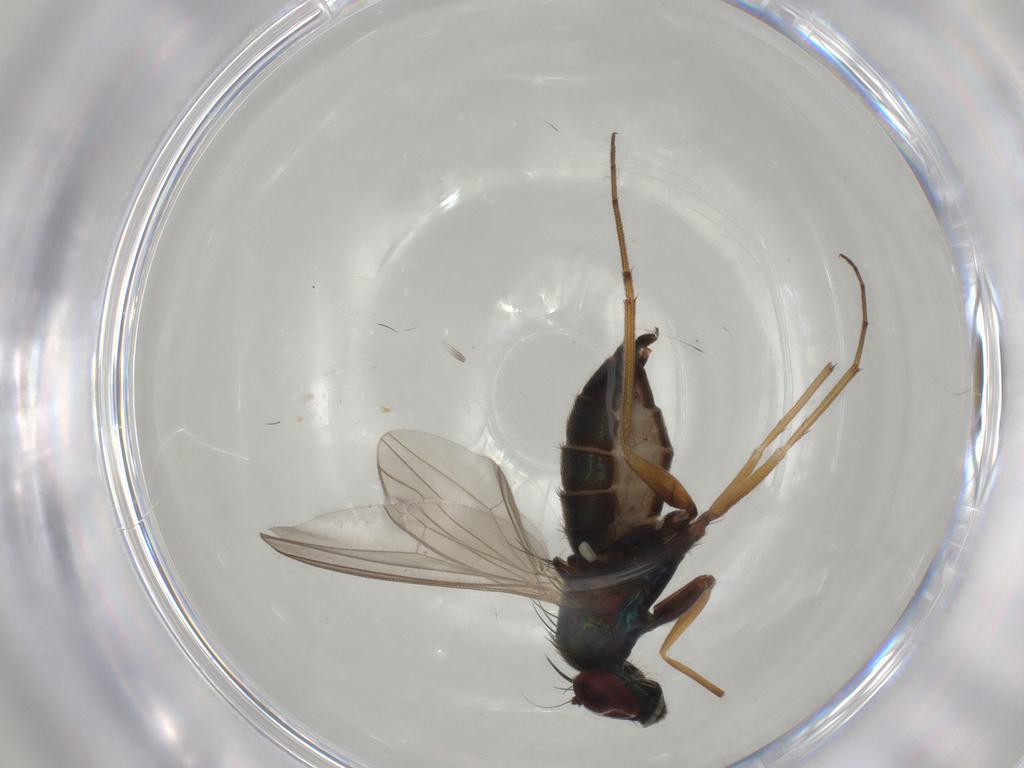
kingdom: Animalia
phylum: Arthropoda
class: Insecta
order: Diptera
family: Dolichopodidae
